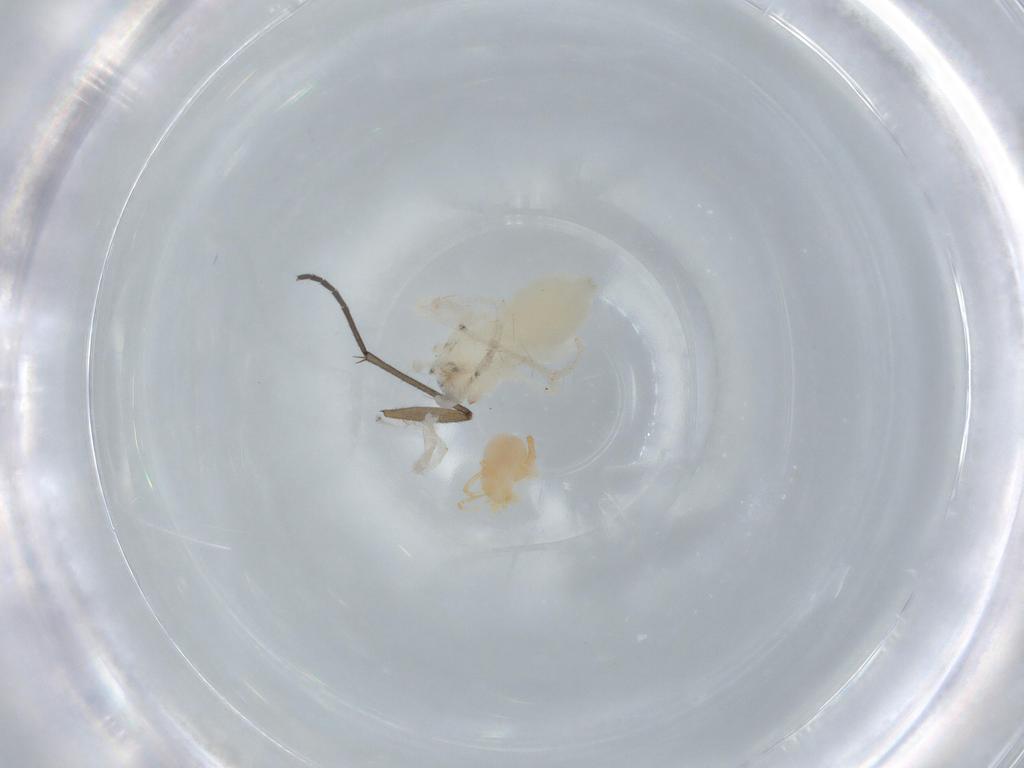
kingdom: Animalia
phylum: Arthropoda
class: Arachnida
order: Araneae
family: Anyphaenidae
